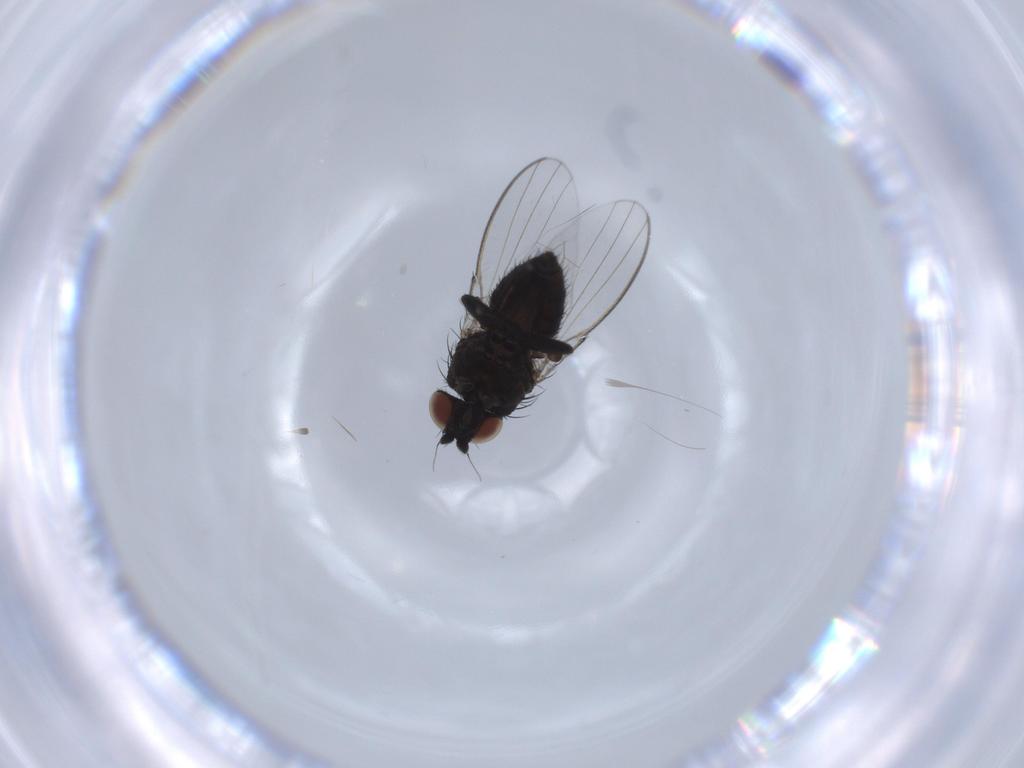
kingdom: Animalia
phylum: Arthropoda
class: Insecta
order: Diptera
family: Milichiidae
